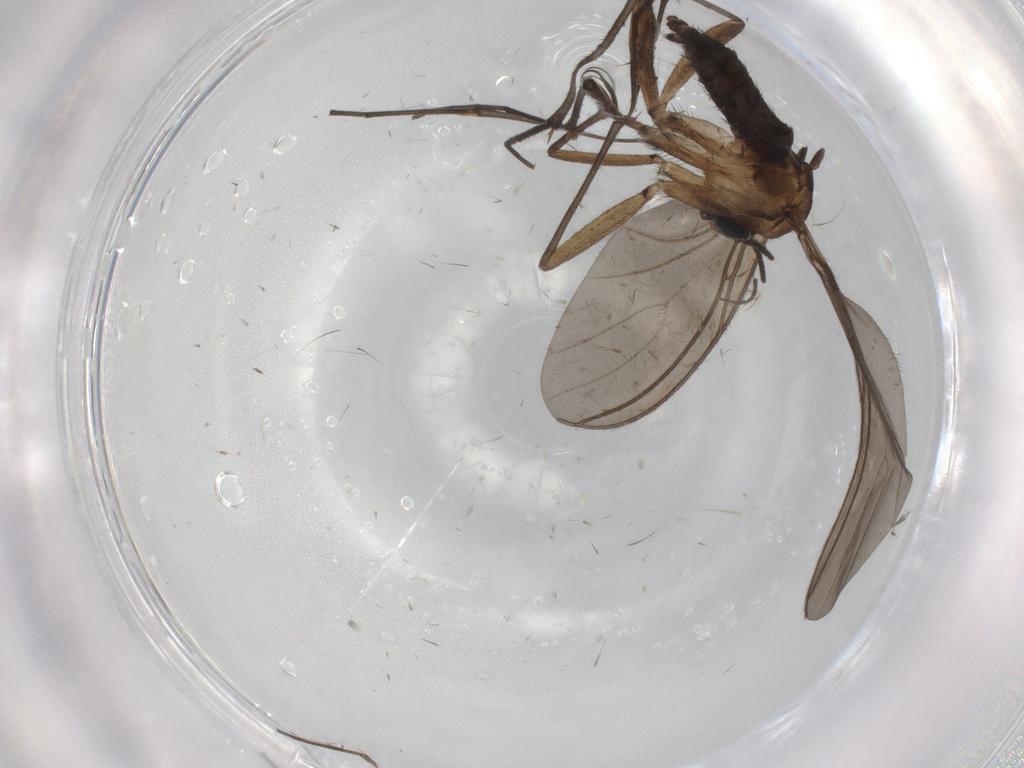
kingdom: Animalia
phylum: Arthropoda
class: Insecta
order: Diptera
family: Sciaridae
